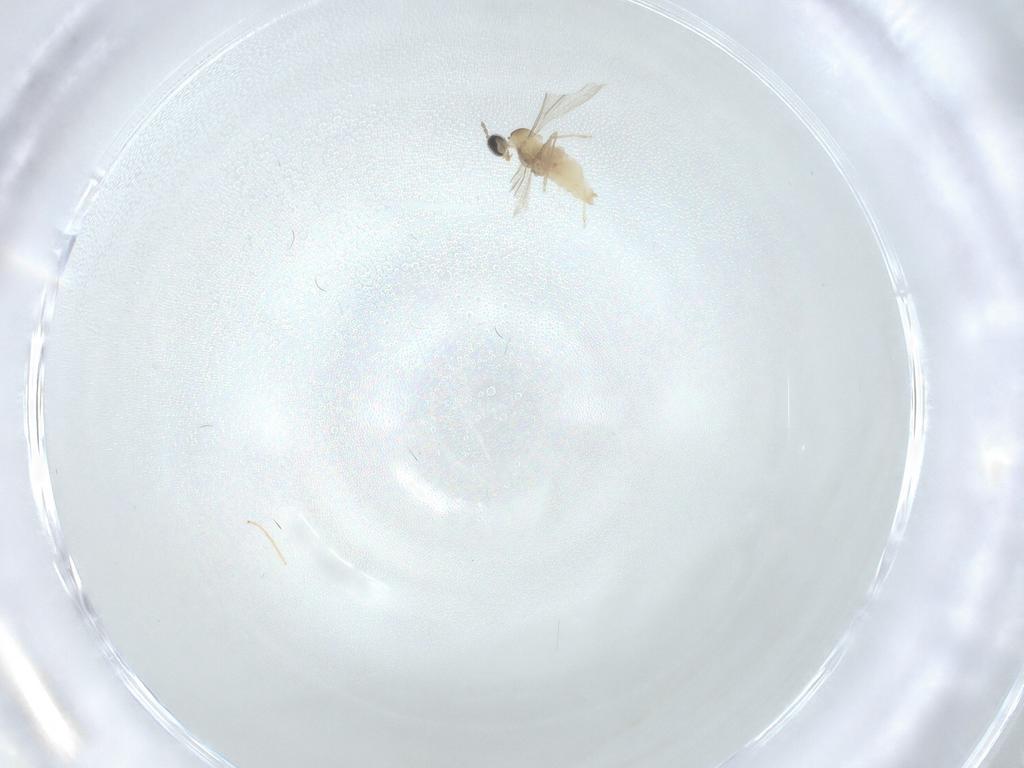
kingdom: Animalia
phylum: Arthropoda
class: Insecta
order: Diptera
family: Cecidomyiidae
